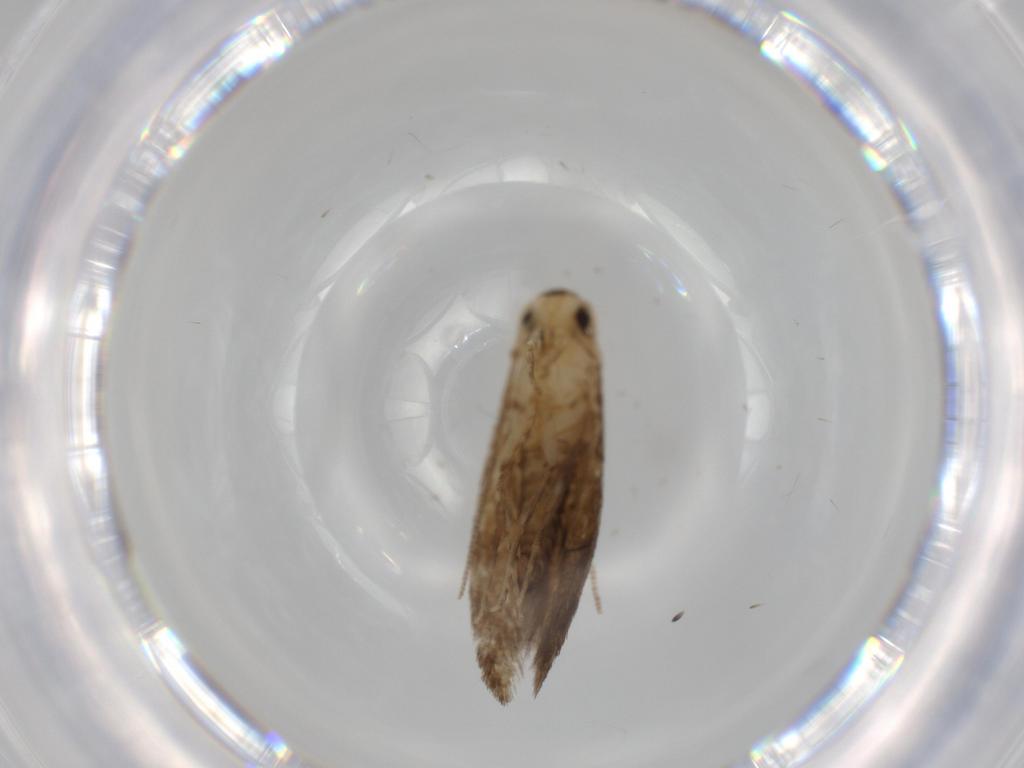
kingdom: Animalia
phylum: Arthropoda
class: Insecta
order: Lepidoptera
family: Tineidae
